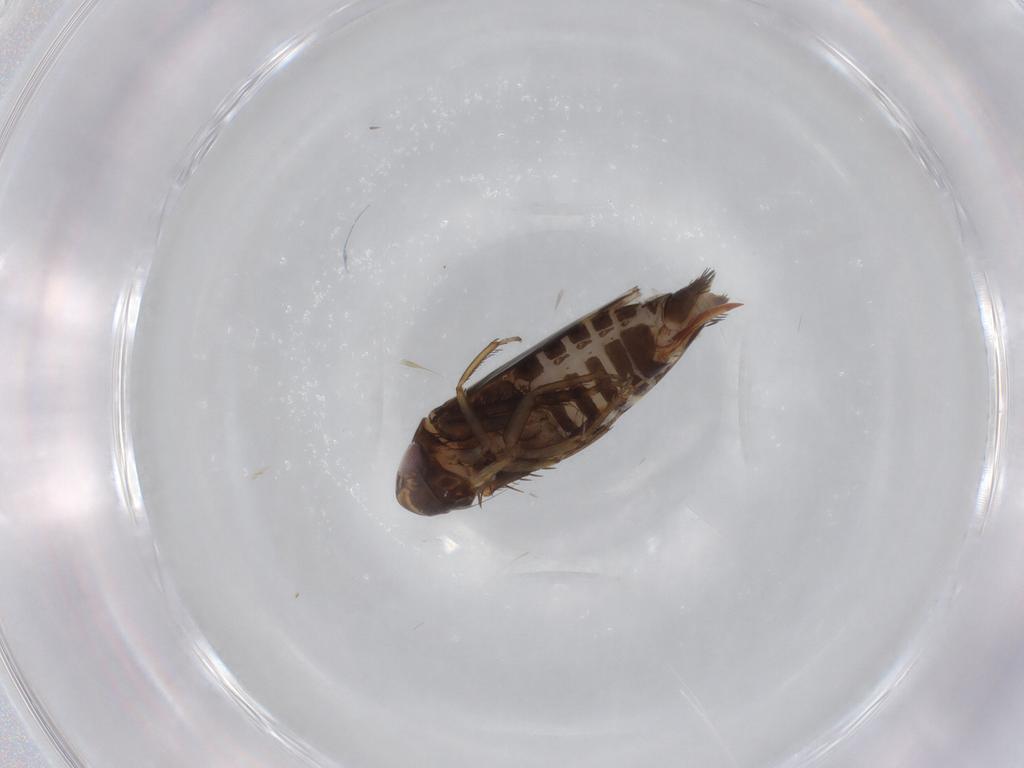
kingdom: Animalia
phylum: Arthropoda
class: Insecta
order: Hemiptera
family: Cicadellidae
